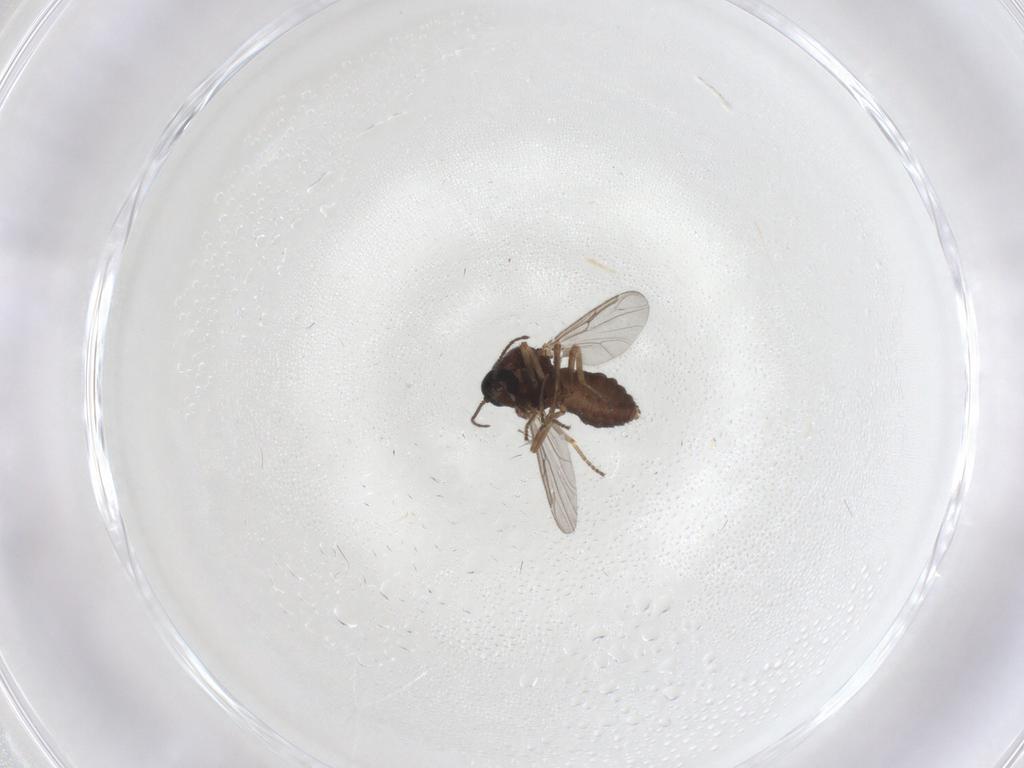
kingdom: Animalia
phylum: Arthropoda
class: Insecta
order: Diptera
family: Ceratopogonidae
